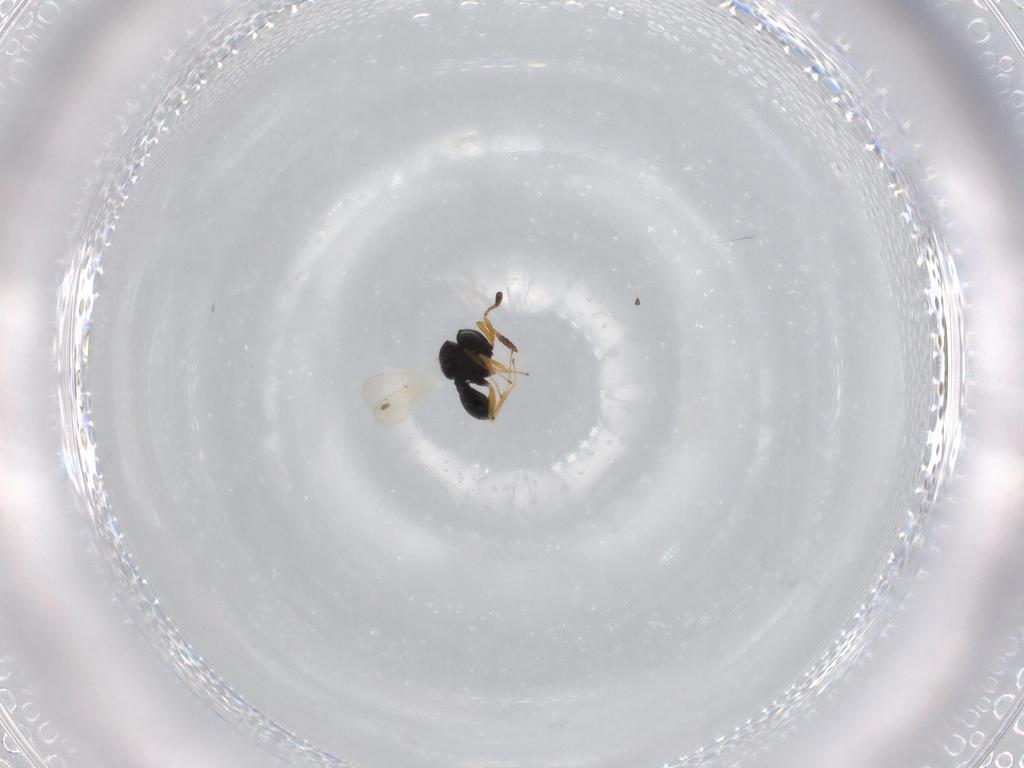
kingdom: Animalia
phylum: Arthropoda
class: Insecta
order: Hymenoptera
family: Scelionidae
